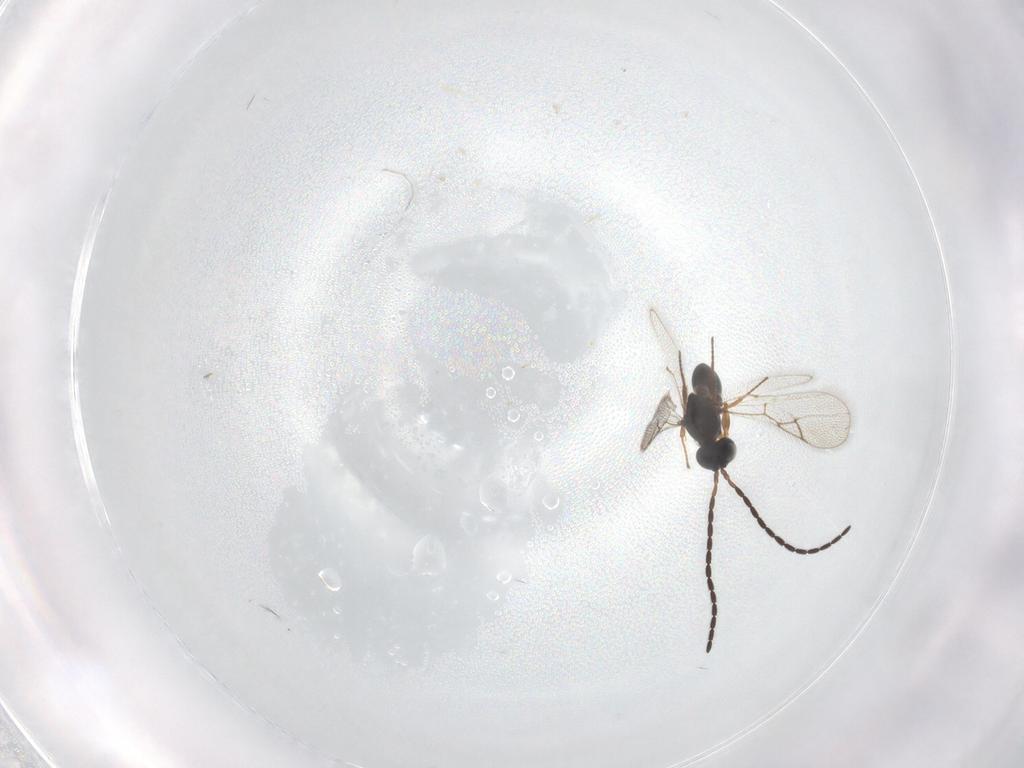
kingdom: Animalia
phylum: Arthropoda
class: Insecta
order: Hymenoptera
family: Figitidae
